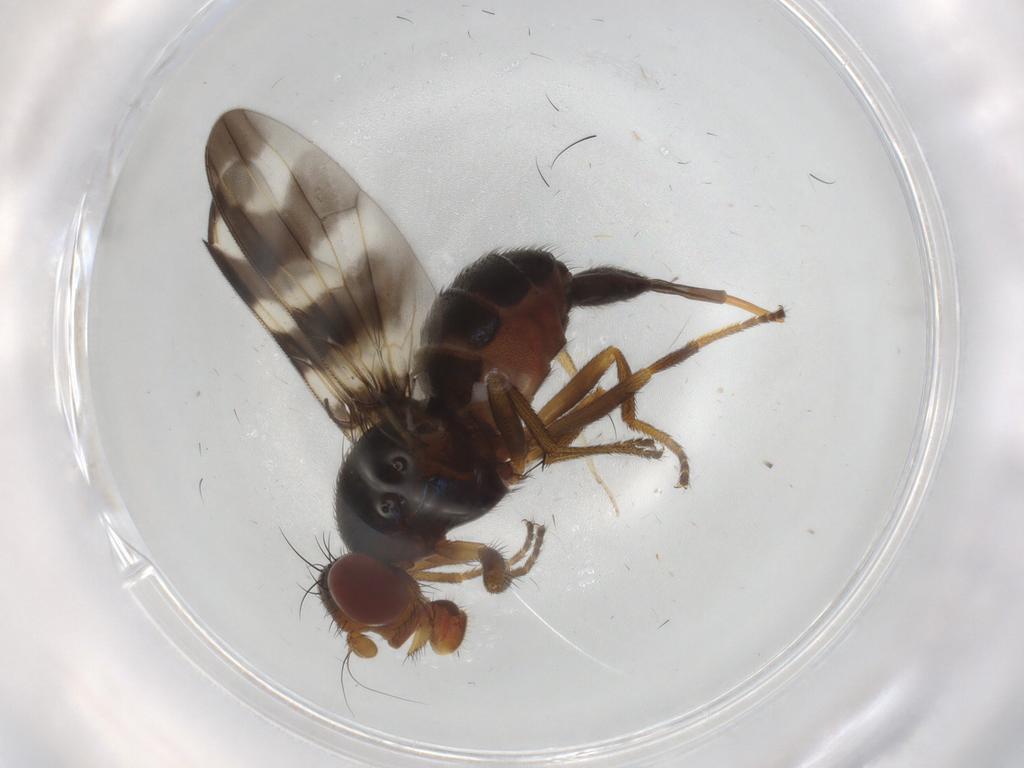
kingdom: Animalia
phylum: Arthropoda
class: Insecta
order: Diptera
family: Ceratopogonidae
